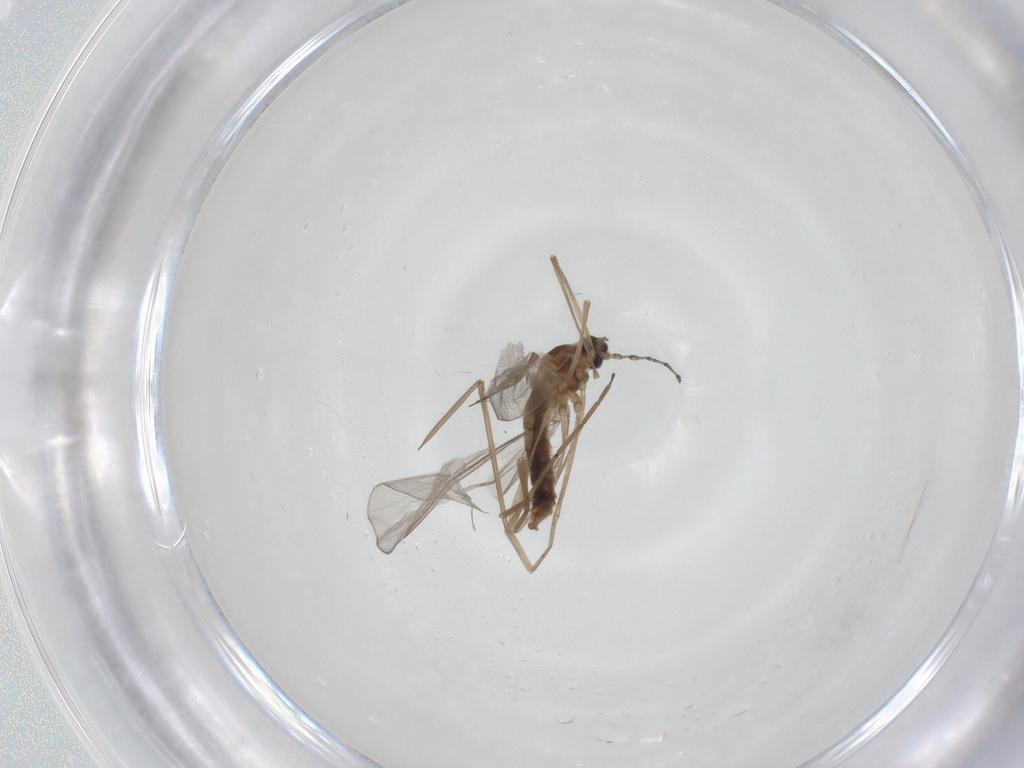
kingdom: Animalia
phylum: Arthropoda
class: Insecta
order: Diptera
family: Cecidomyiidae
